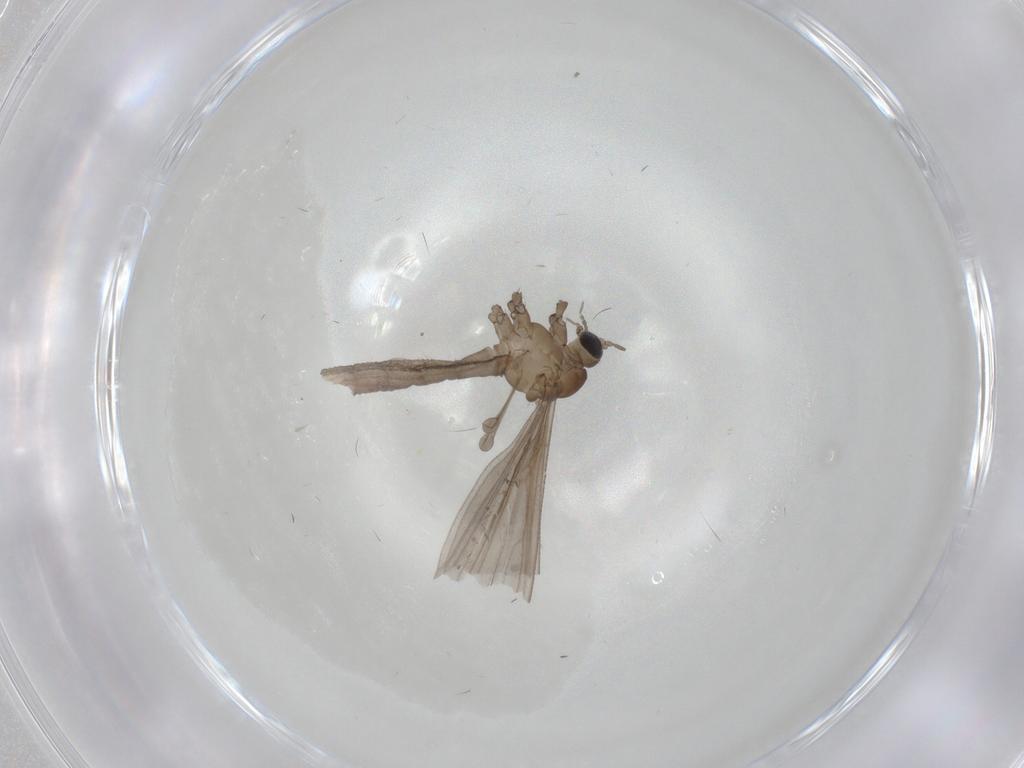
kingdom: Animalia
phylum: Arthropoda
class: Insecta
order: Diptera
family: Limoniidae
